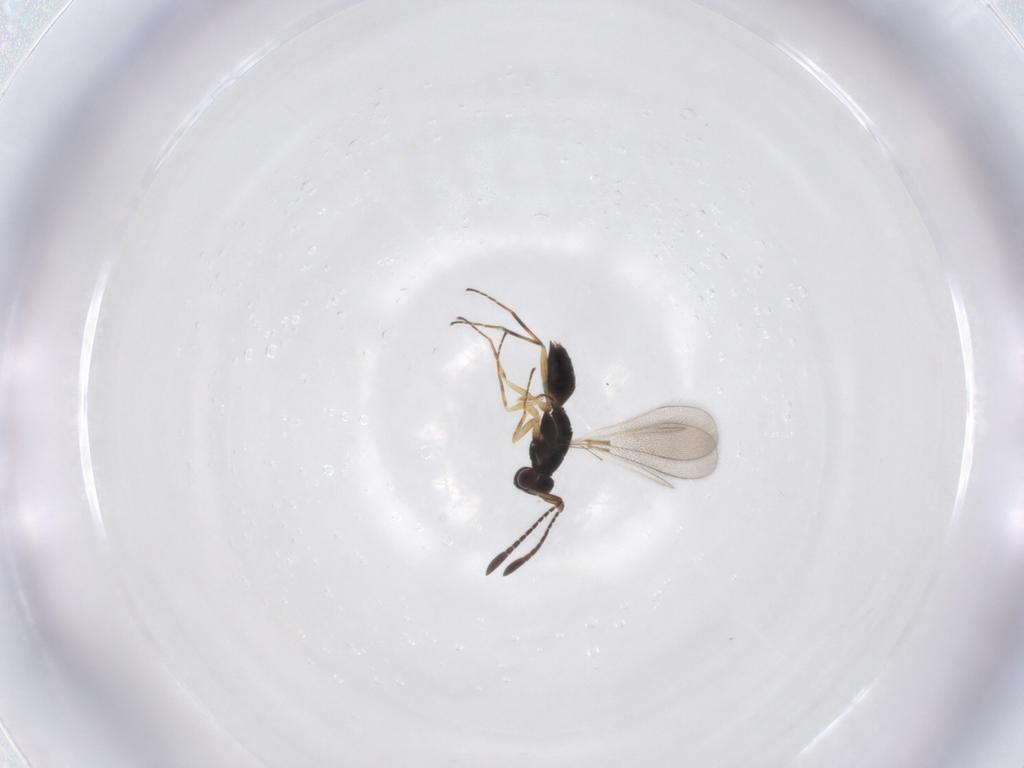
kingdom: Animalia
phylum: Arthropoda
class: Insecta
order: Hymenoptera
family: Mymaridae
